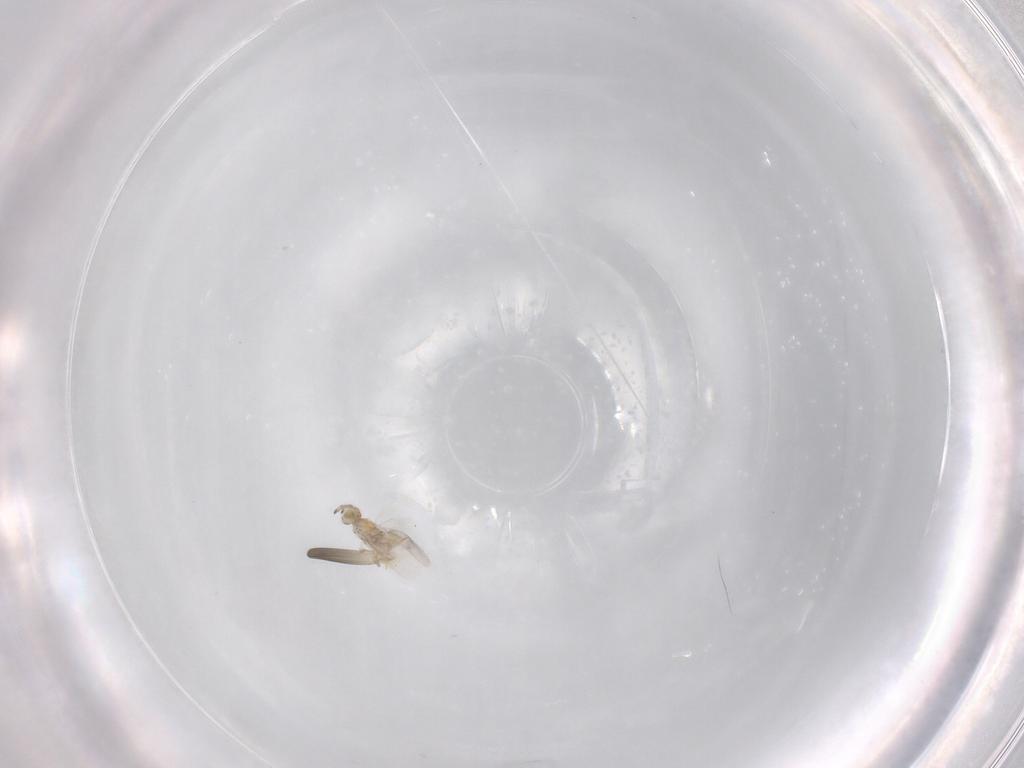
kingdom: Animalia
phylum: Arthropoda
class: Insecta
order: Hymenoptera
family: Aphelinidae
